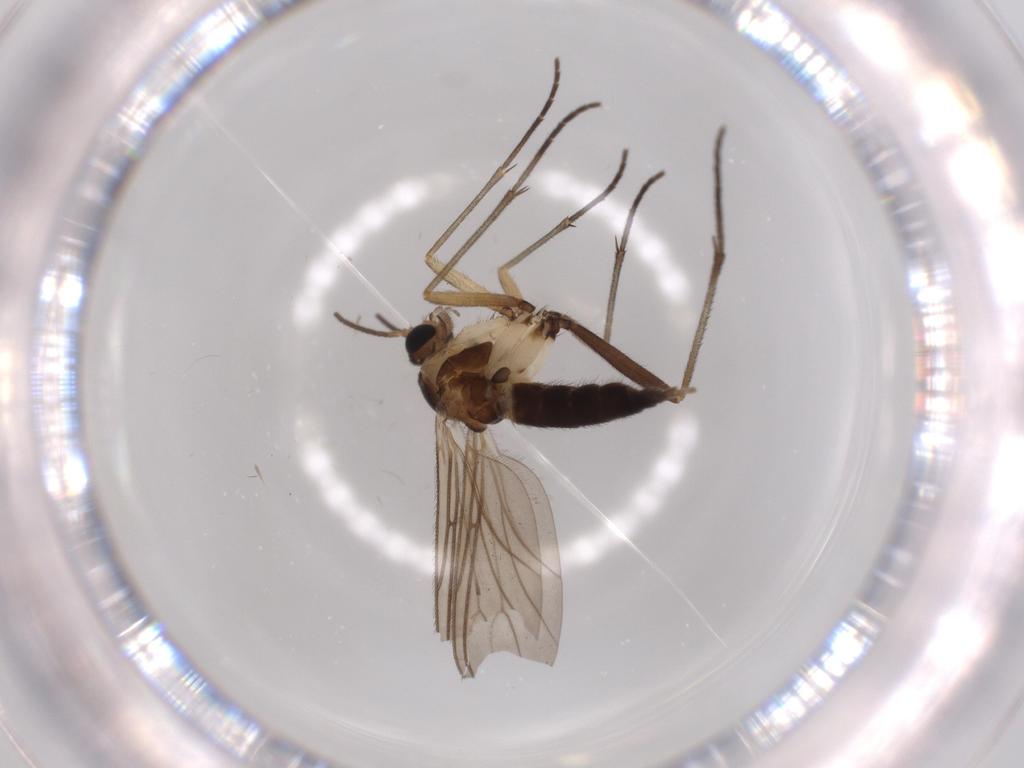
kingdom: Animalia
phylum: Arthropoda
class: Insecta
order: Diptera
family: Sciaridae
